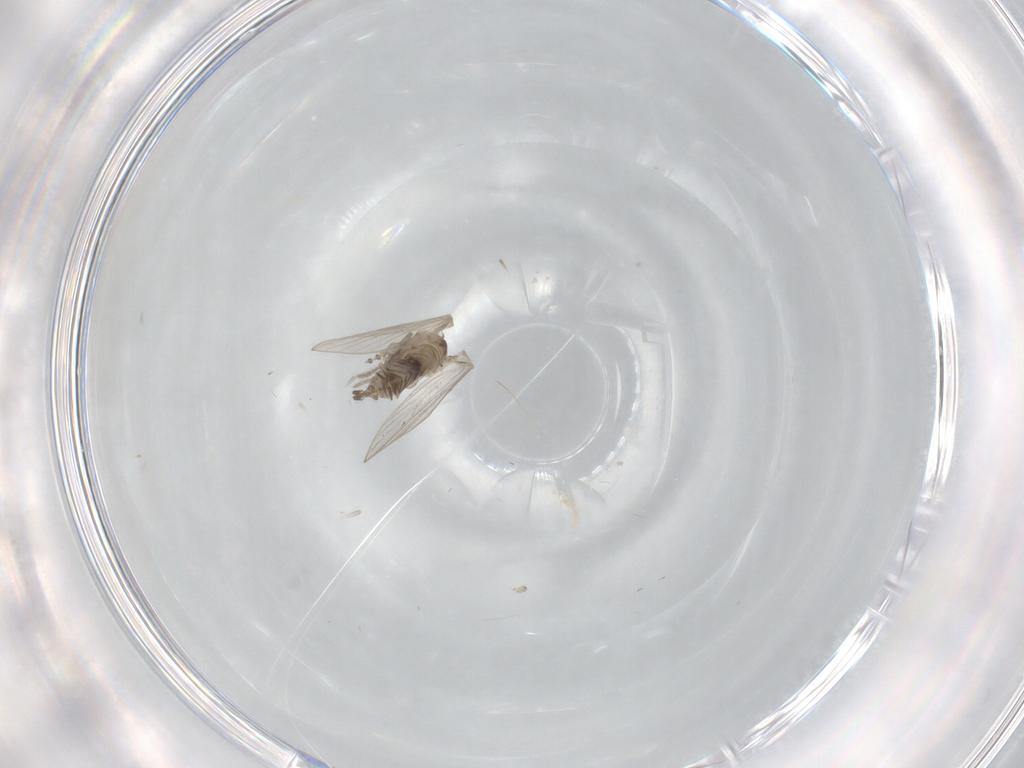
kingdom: Animalia
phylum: Arthropoda
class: Insecta
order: Diptera
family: Psychodidae
